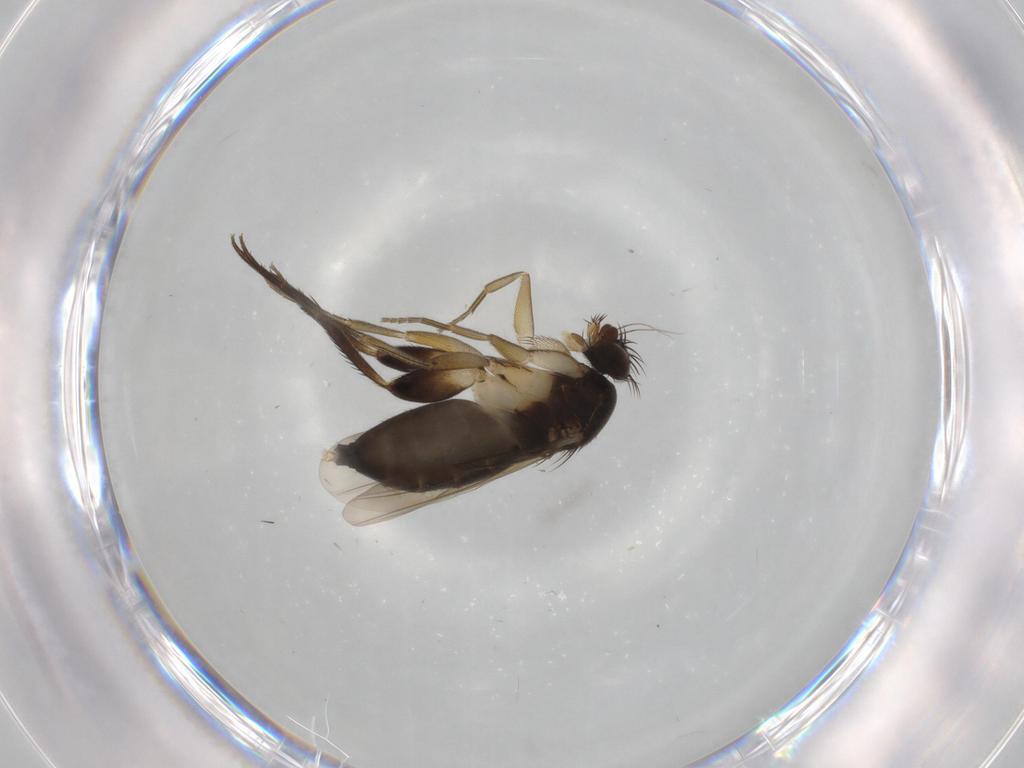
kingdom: Animalia
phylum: Arthropoda
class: Insecta
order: Diptera
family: Phoridae
